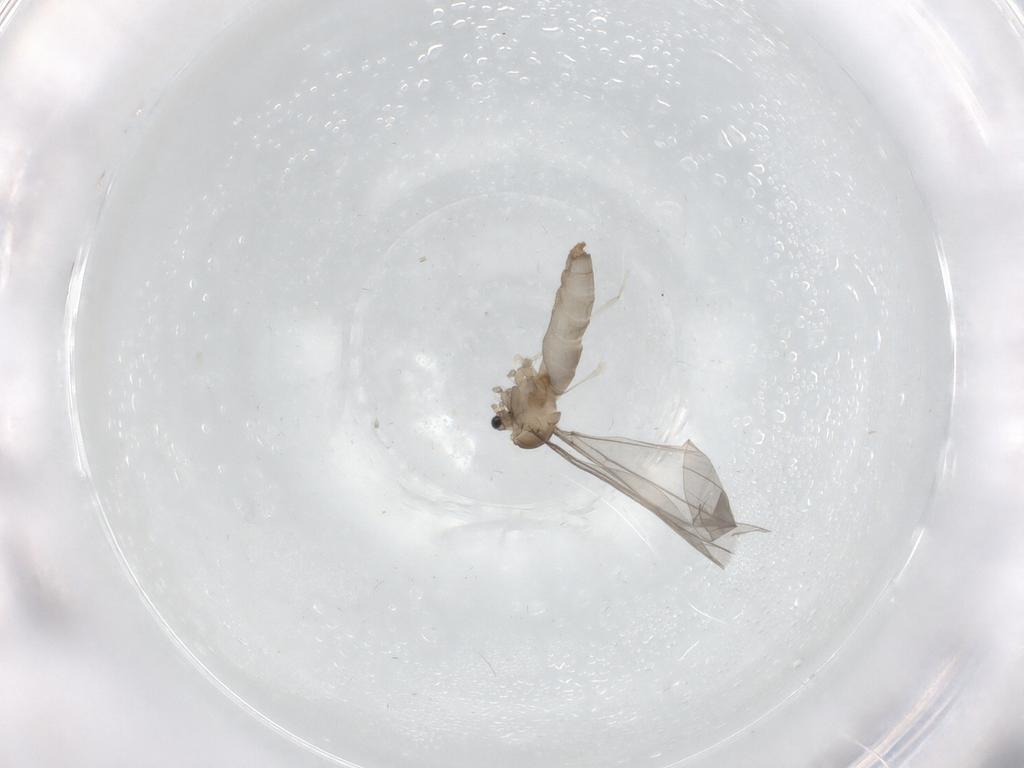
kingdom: Animalia
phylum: Arthropoda
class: Insecta
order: Diptera
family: Cecidomyiidae
